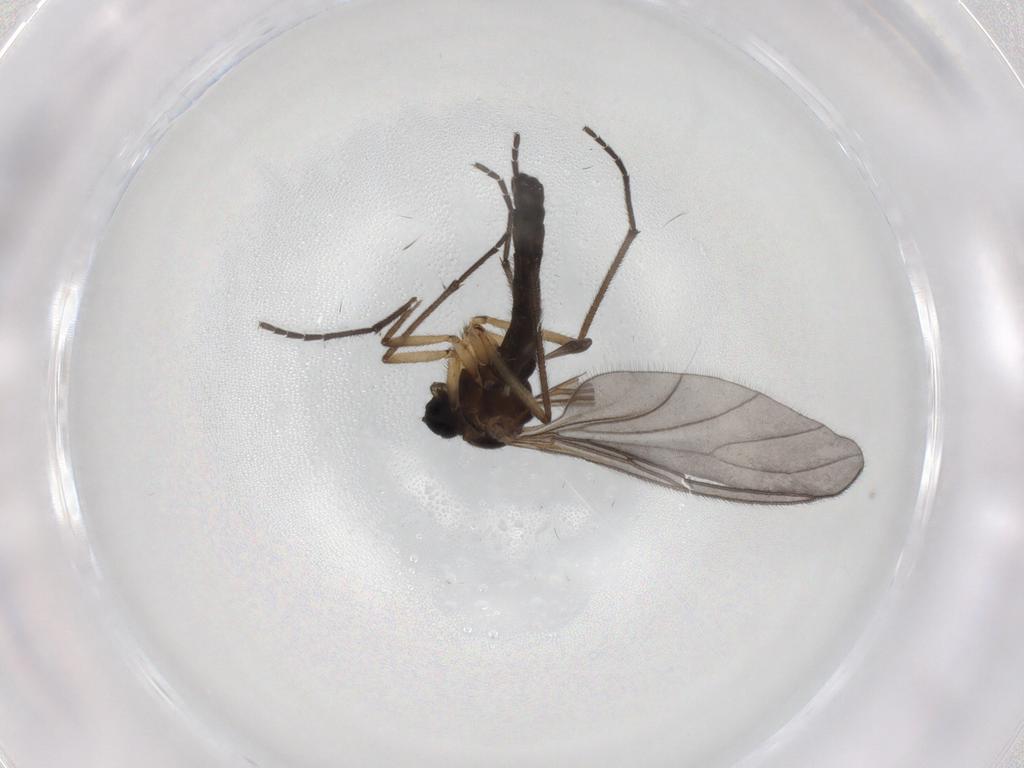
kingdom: Animalia
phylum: Arthropoda
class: Insecta
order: Diptera
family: Sciaridae
